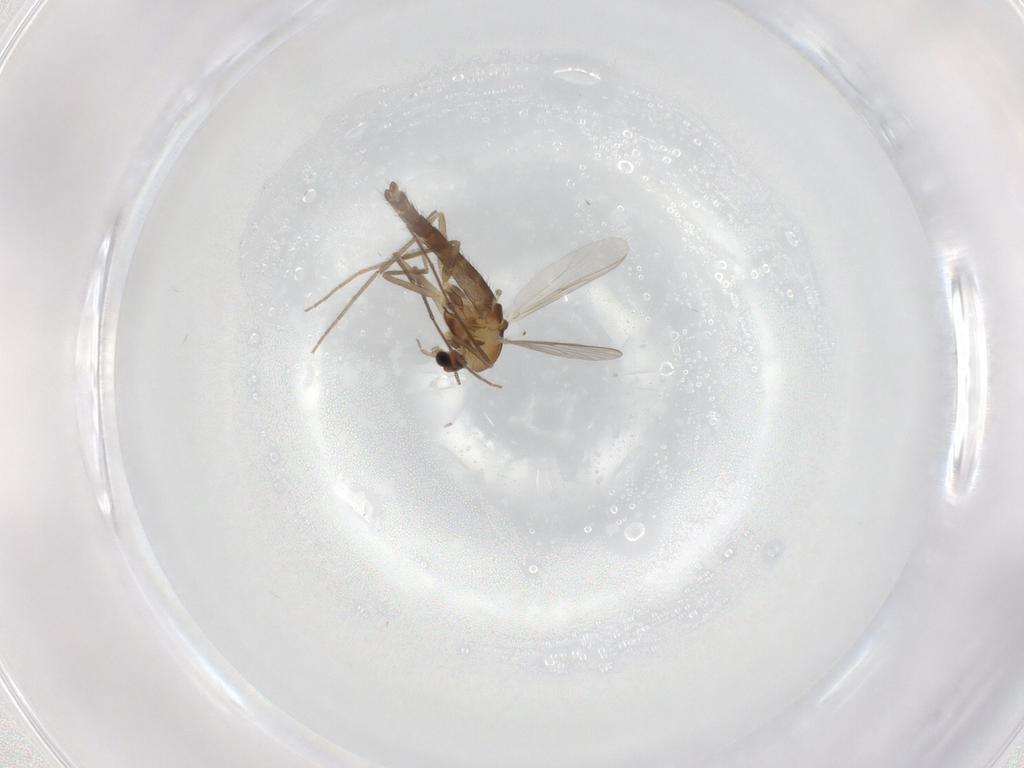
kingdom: Animalia
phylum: Arthropoda
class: Insecta
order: Diptera
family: Chironomidae
